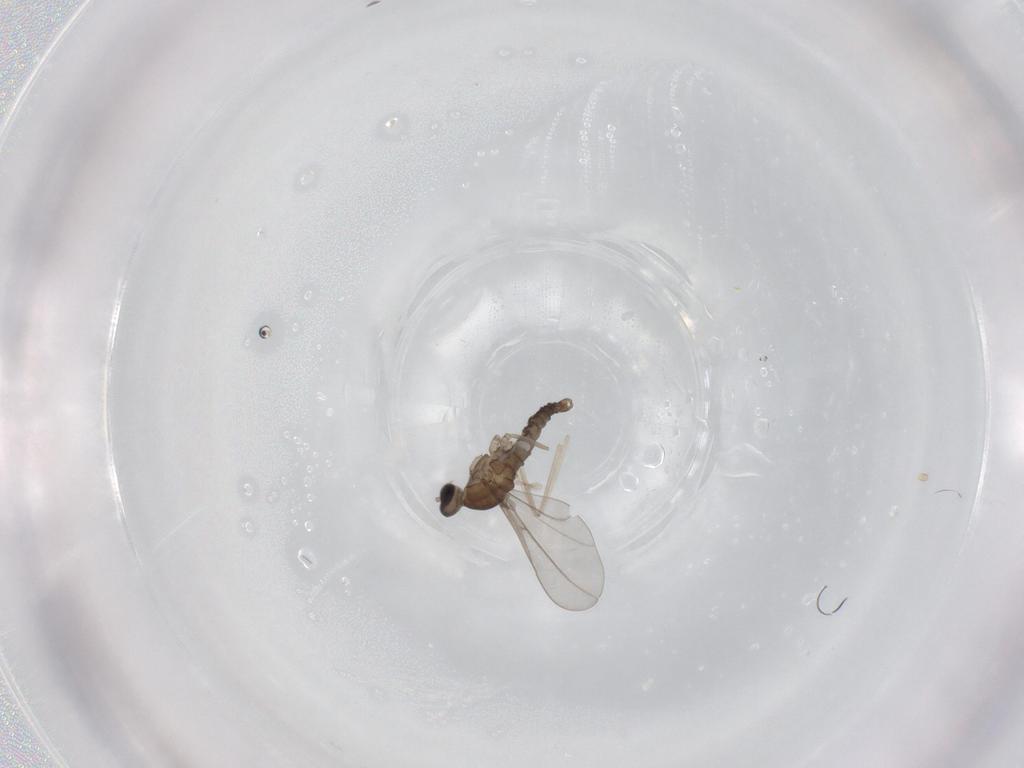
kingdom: Animalia
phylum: Arthropoda
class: Insecta
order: Diptera
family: Cecidomyiidae
